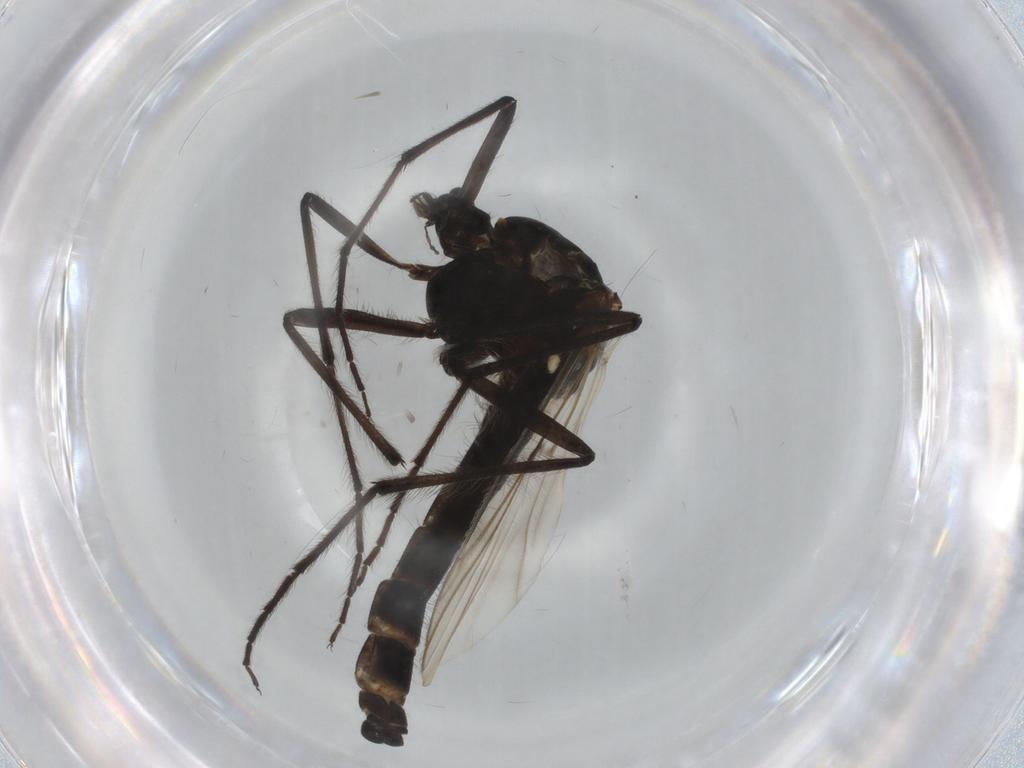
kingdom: Animalia
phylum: Arthropoda
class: Insecta
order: Diptera
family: Chironomidae
